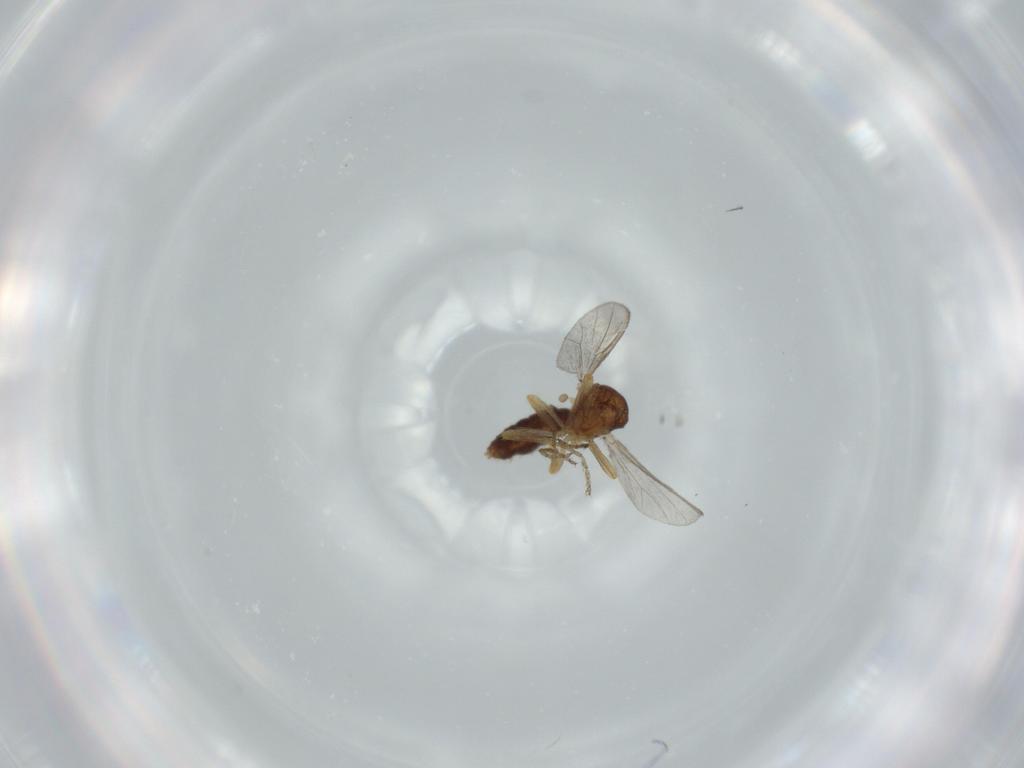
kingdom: Animalia
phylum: Arthropoda
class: Insecta
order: Diptera
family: Ceratopogonidae
